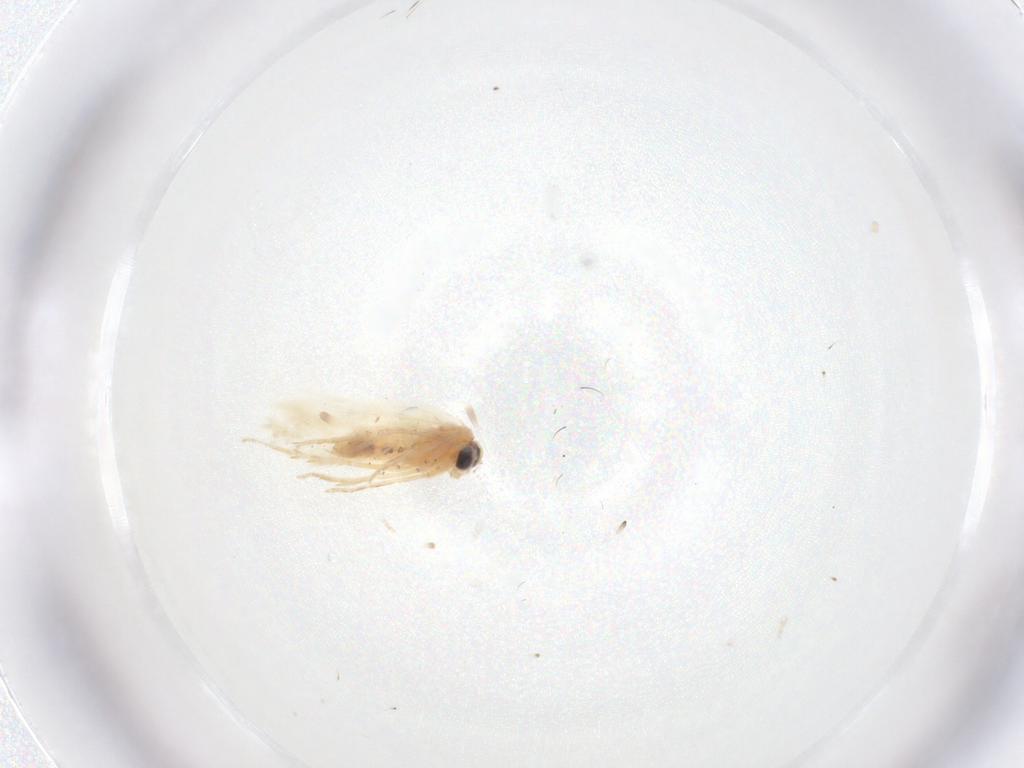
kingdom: Animalia
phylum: Arthropoda
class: Insecta
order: Lepidoptera
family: Gelechiidae
